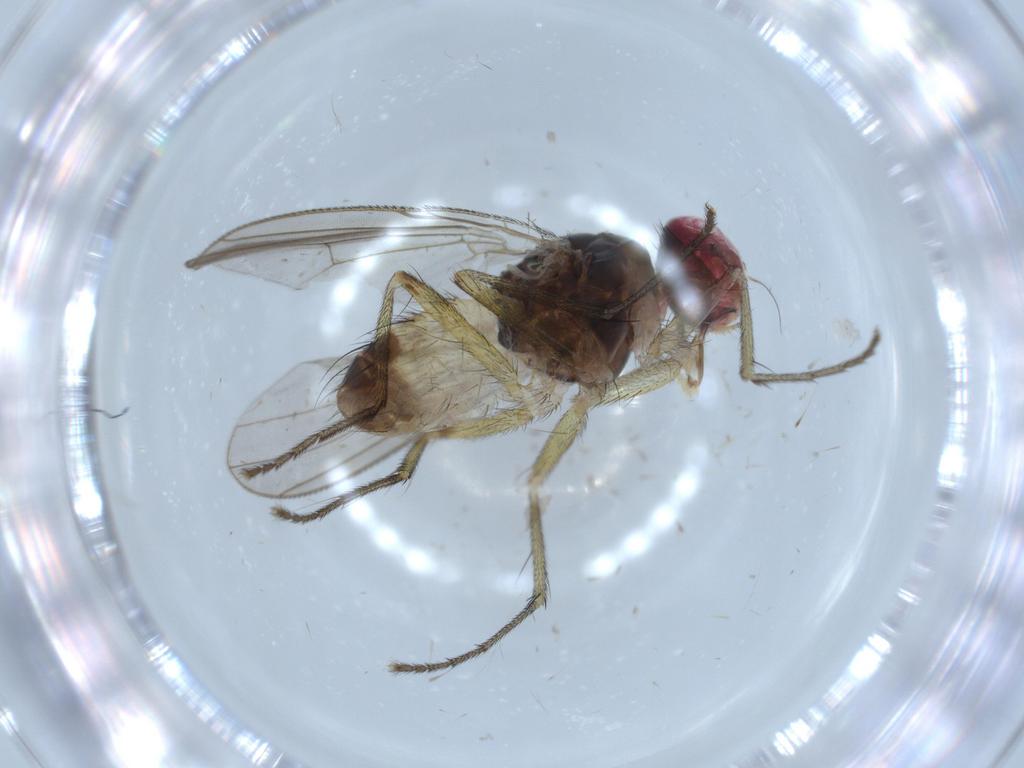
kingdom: Animalia
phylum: Arthropoda
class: Insecta
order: Diptera
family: Muscidae
